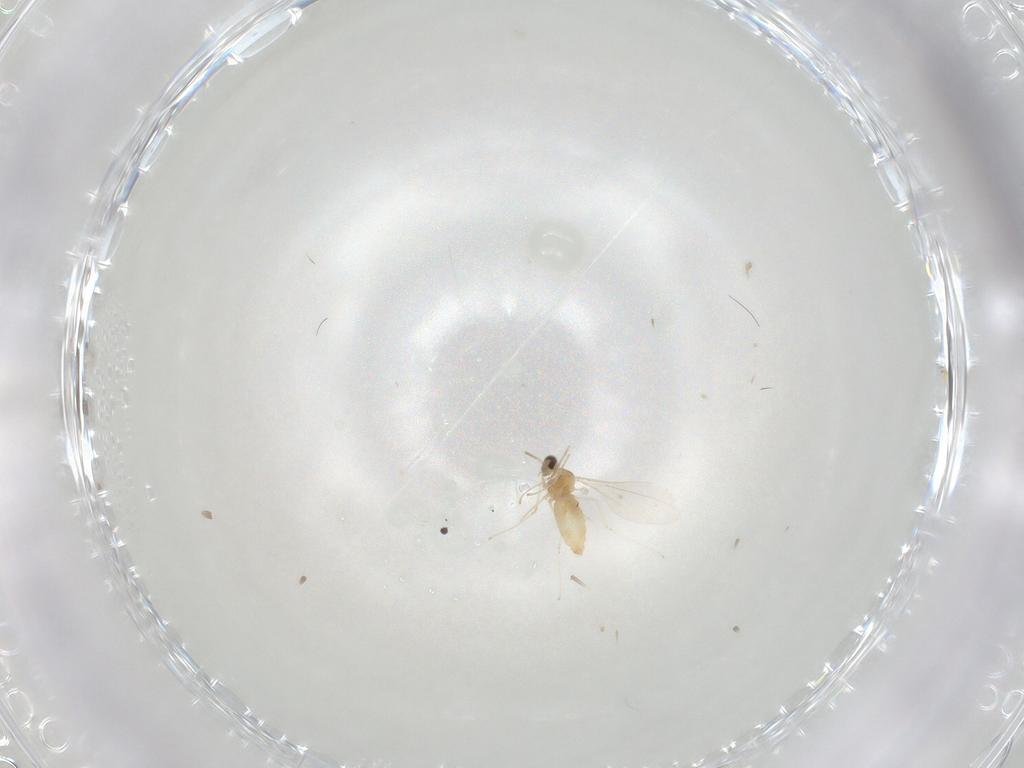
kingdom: Animalia
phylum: Arthropoda
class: Insecta
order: Diptera
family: Cecidomyiidae
